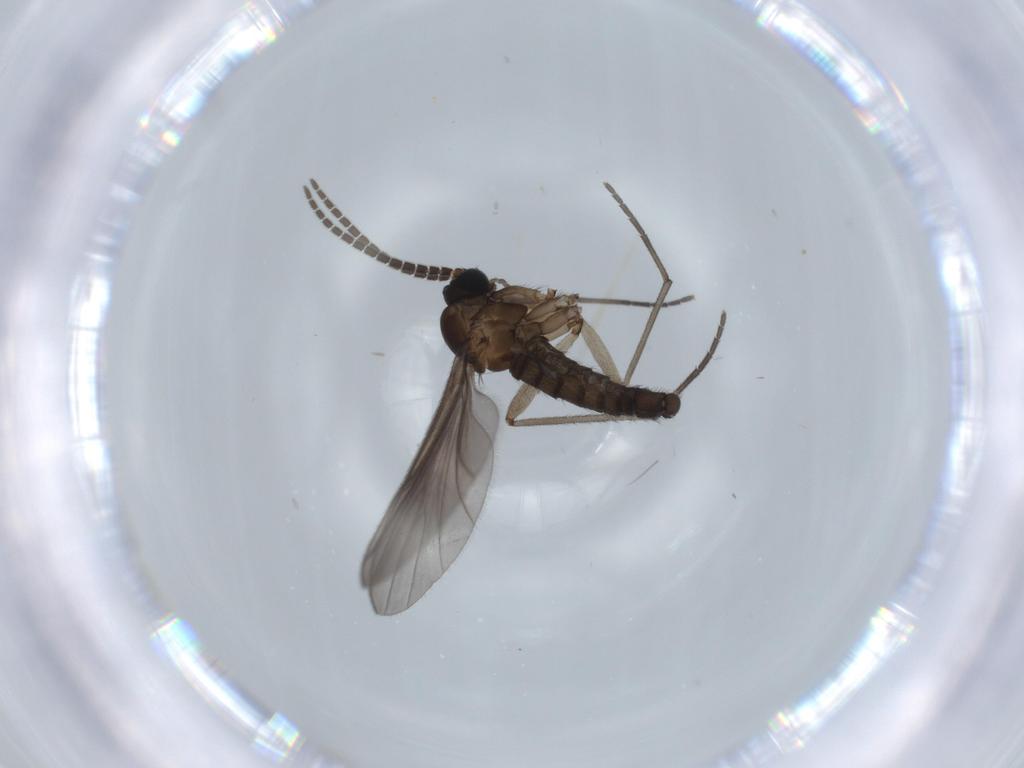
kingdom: Animalia
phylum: Arthropoda
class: Insecta
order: Diptera
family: Sciaridae
